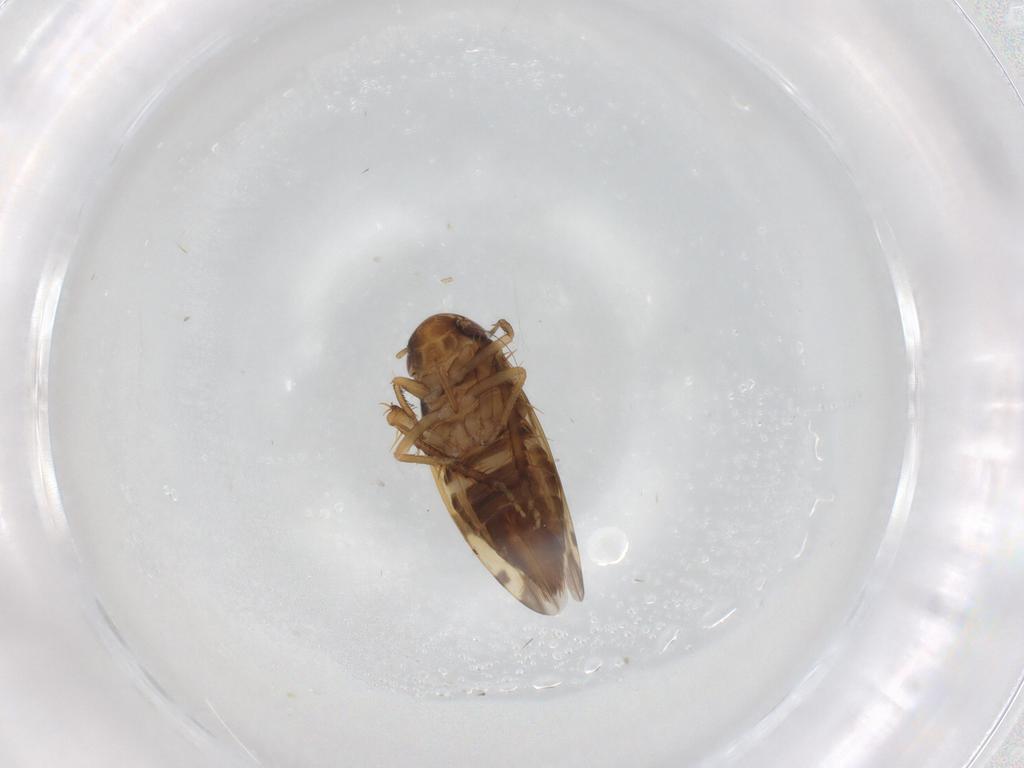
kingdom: Animalia
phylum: Arthropoda
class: Insecta
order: Hemiptera
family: Cicadellidae
